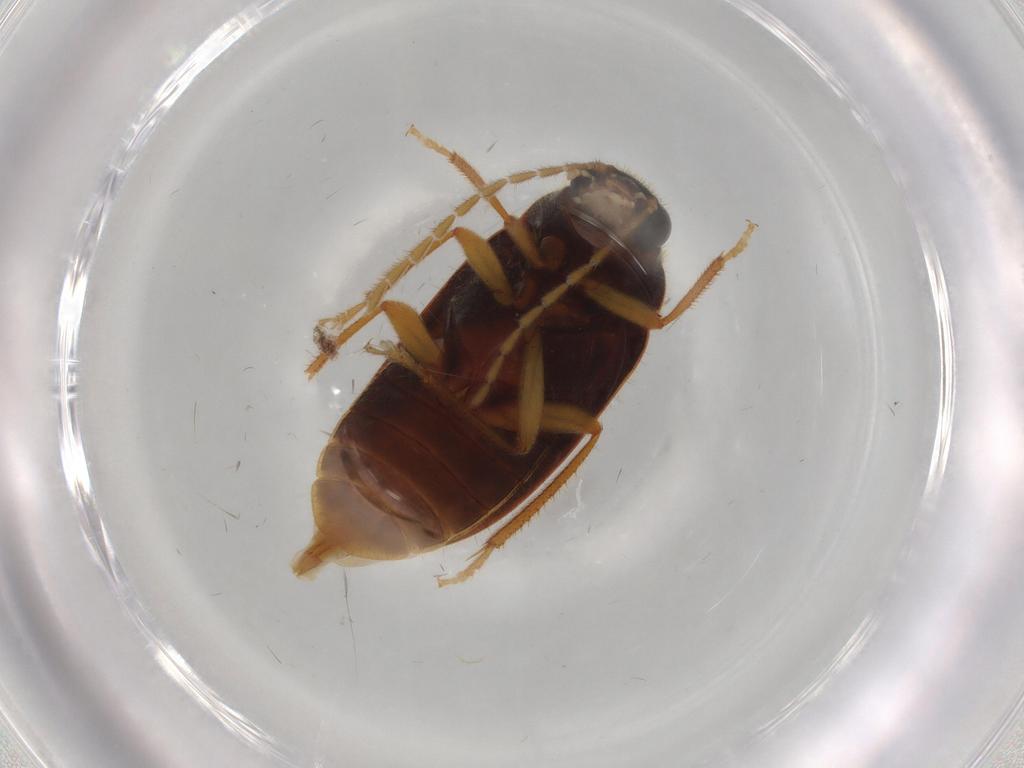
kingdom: Animalia
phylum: Arthropoda
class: Insecta
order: Coleoptera
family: Ptilodactylidae
